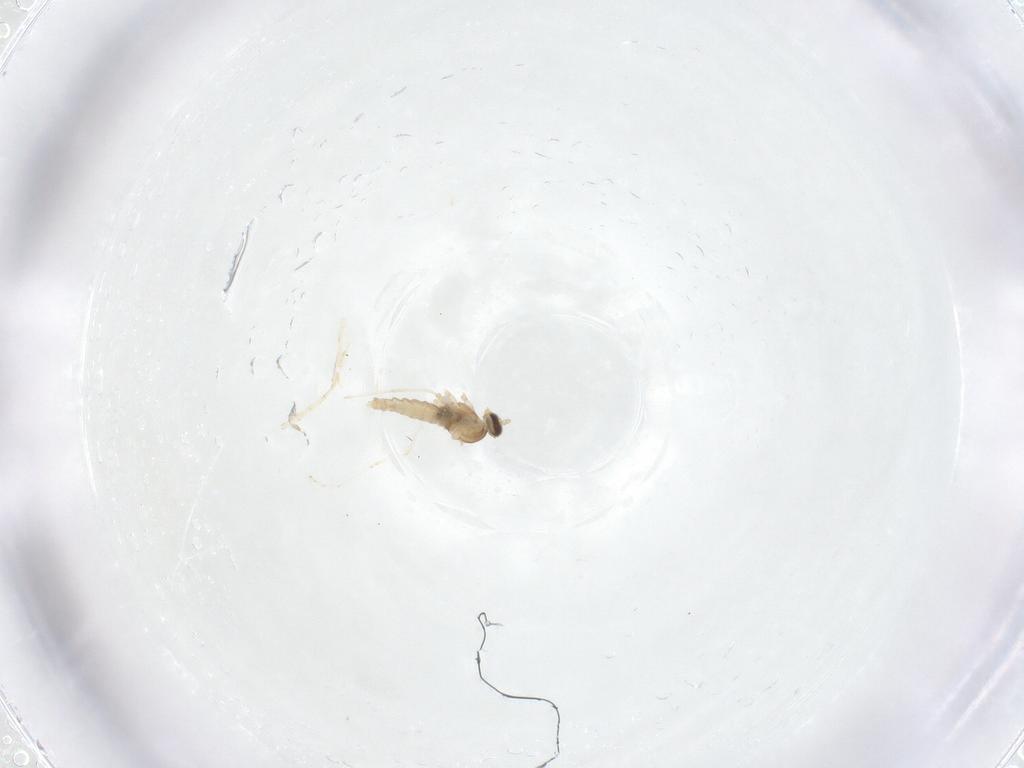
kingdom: Animalia
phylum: Arthropoda
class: Insecta
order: Diptera
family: Cecidomyiidae
